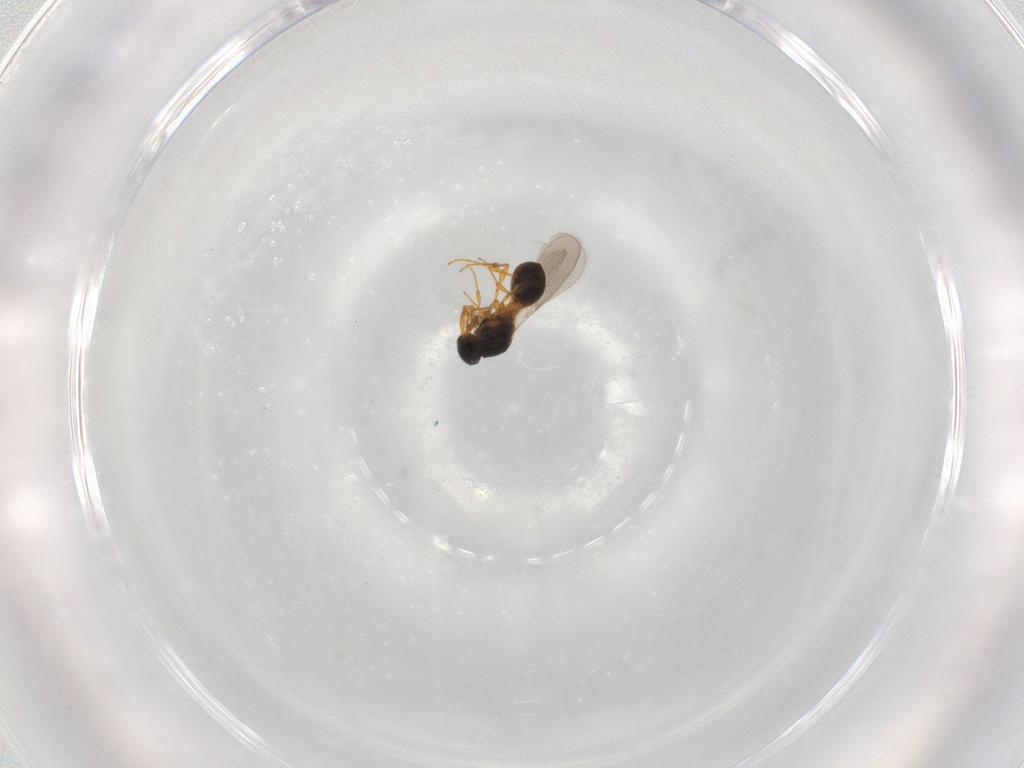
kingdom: Animalia
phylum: Arthropoda
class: Insecta
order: Hymenoptera
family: Platygastridae
